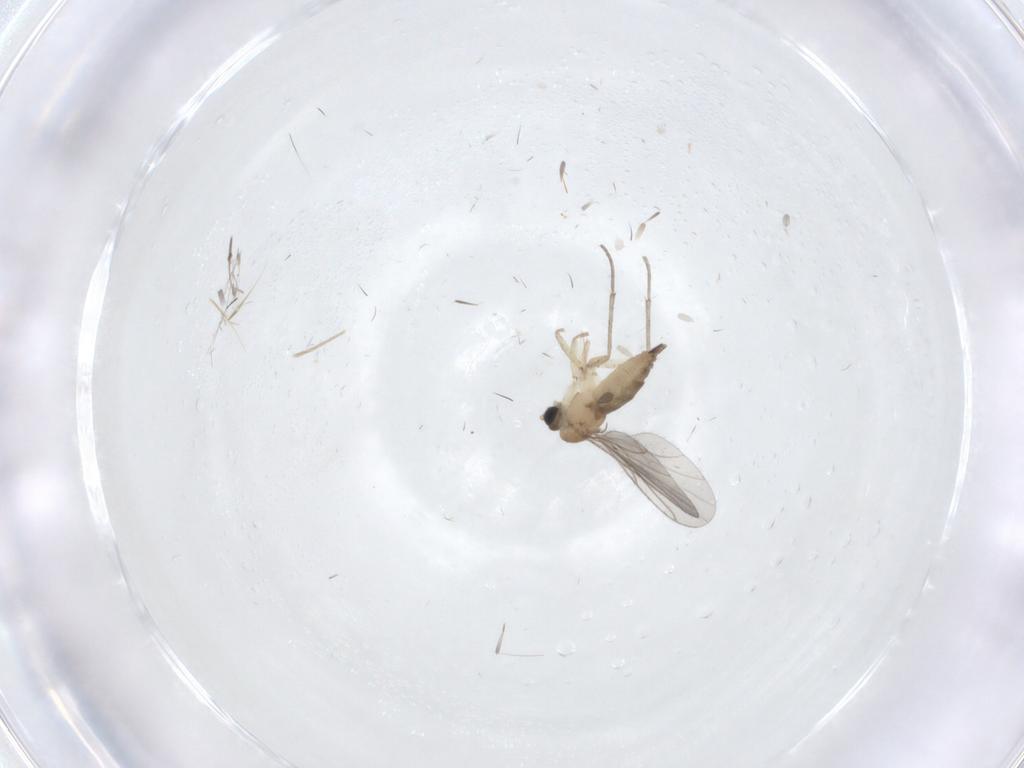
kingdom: Animalia
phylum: Arthropoda
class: Insecta
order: Diptera
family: Sciaridae
